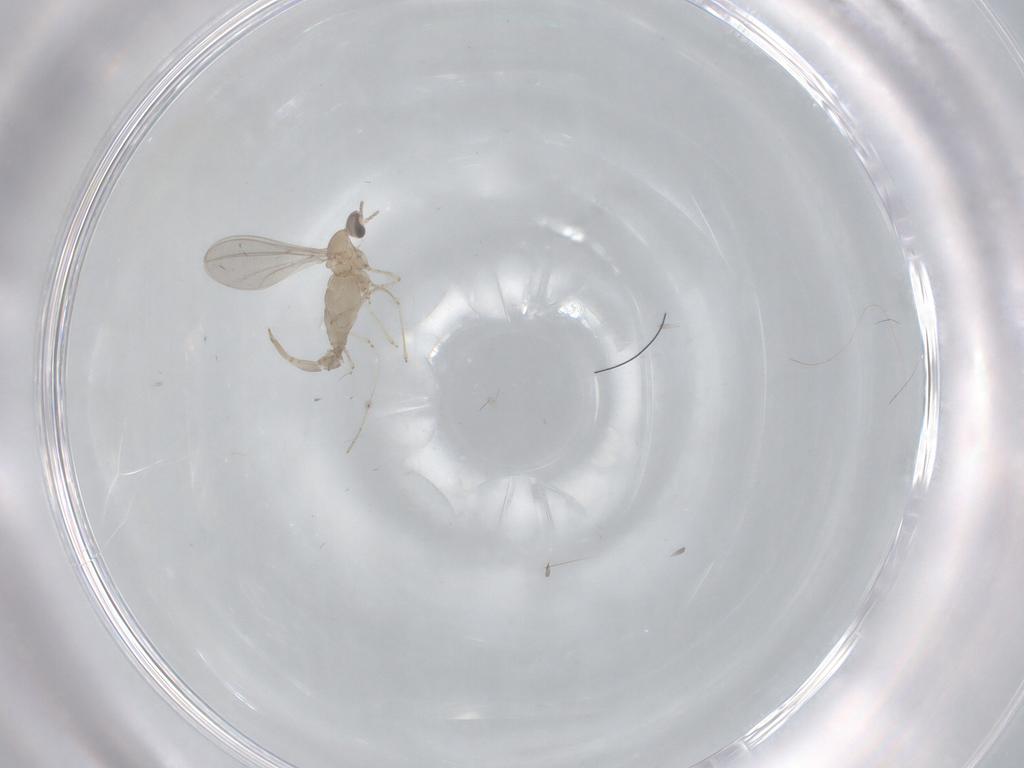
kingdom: Animalia
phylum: Arthropoda
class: Insecta
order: Diptera
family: Cecidomyiidae
